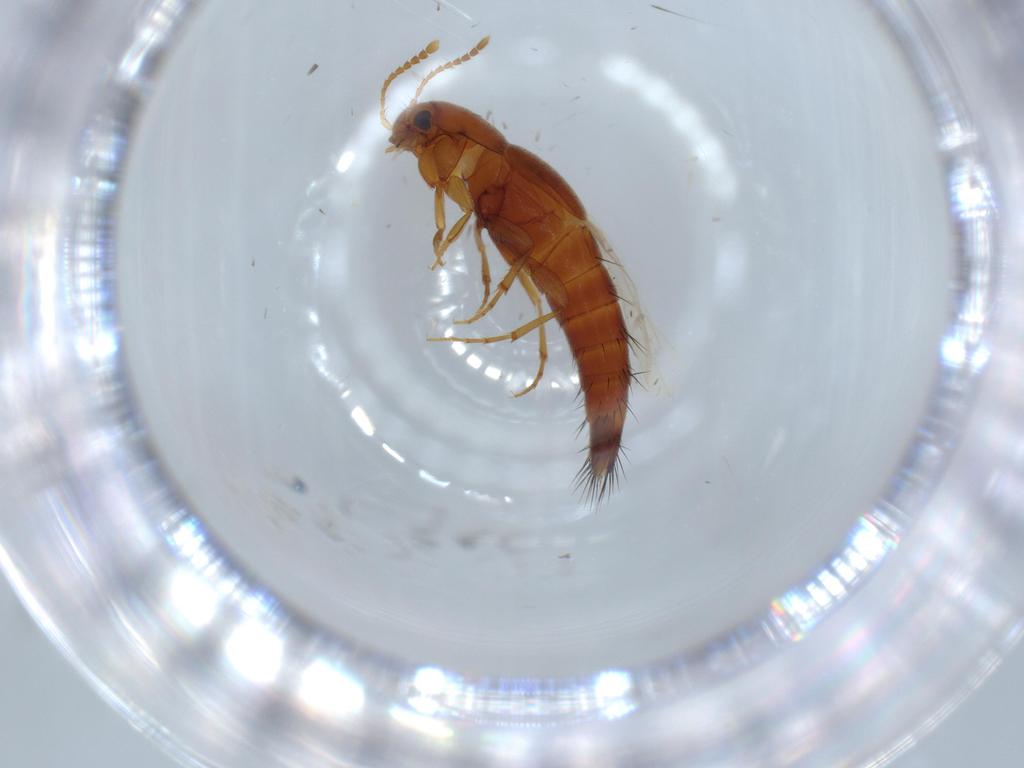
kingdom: Animalia
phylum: Arthropoda
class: Insecta
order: Coleoptera
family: Staphylinidae
